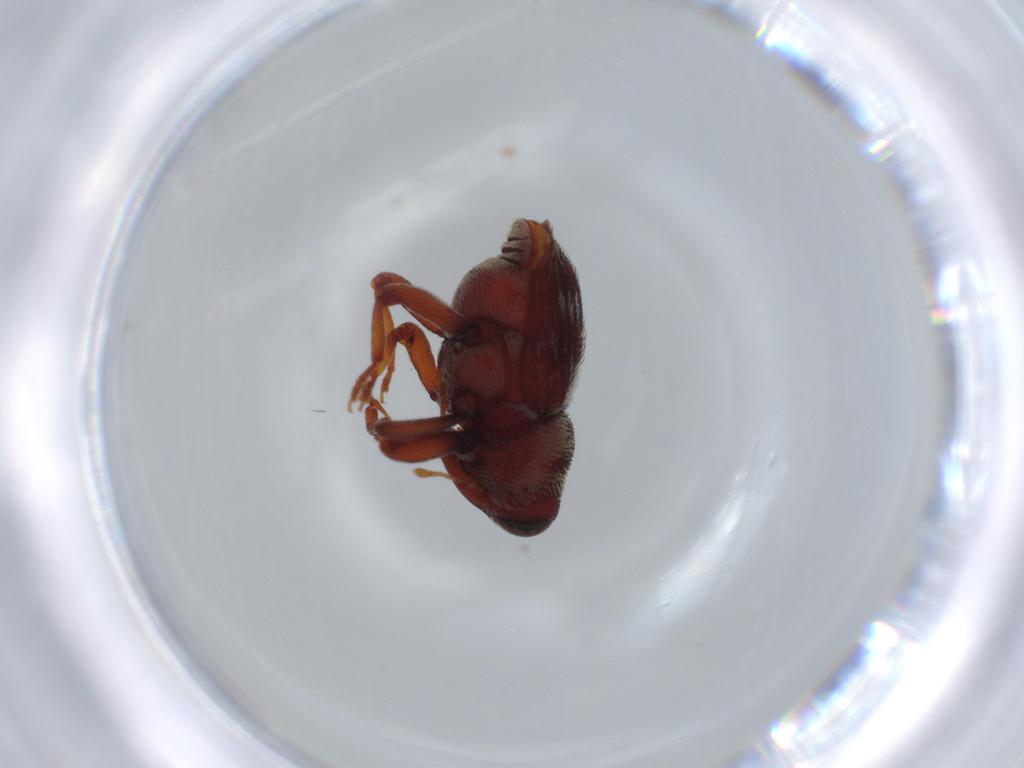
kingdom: Animalia
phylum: Arthropoda
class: Insecta
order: Coleoptera
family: Curculionidae
